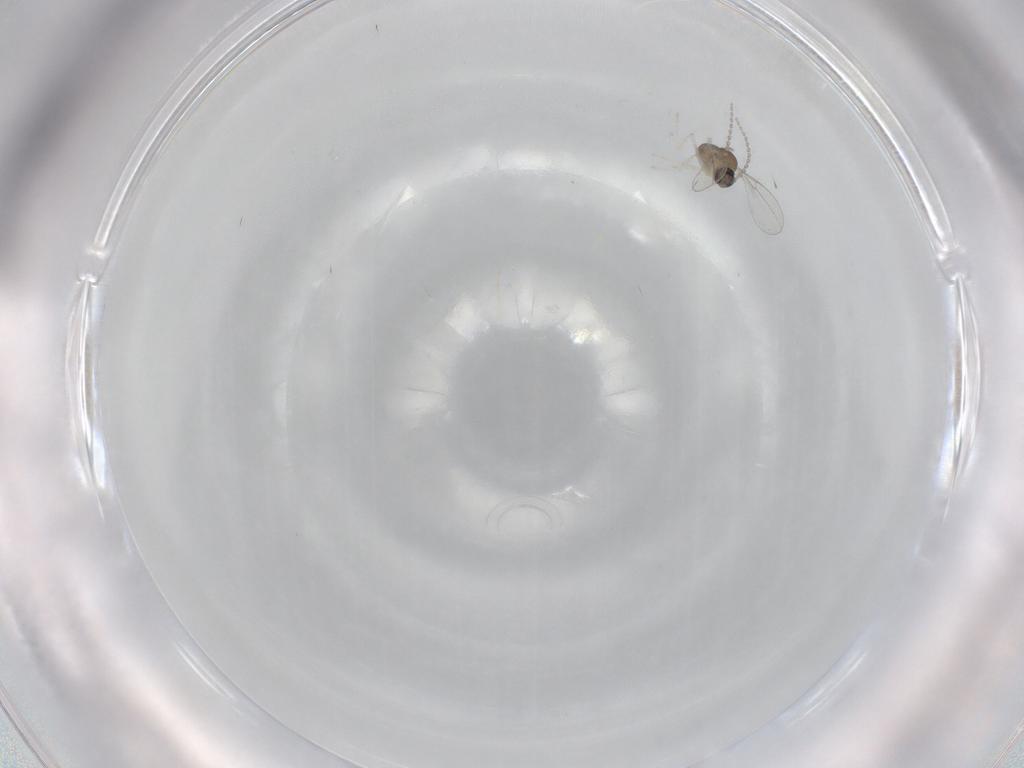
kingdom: Animalia
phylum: Arthropoda
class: Insecta
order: Diptera
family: Cecidomyiidae
